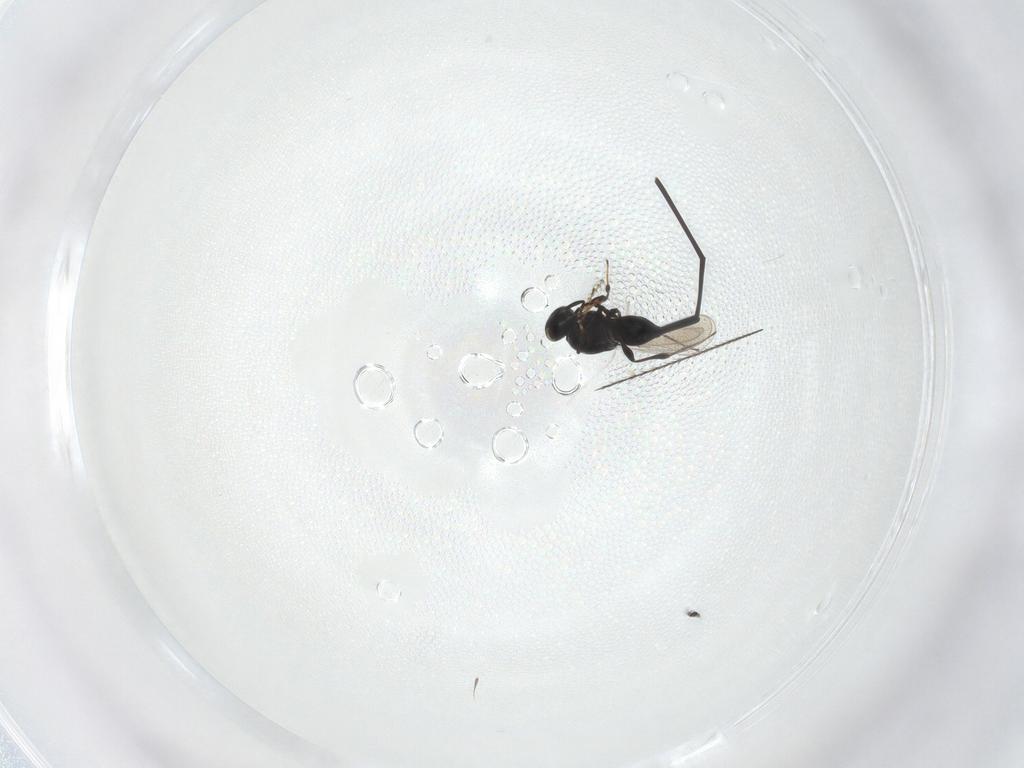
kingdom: Animalia
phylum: Arthropoda
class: Insecta
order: Hymenoptera
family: Platygastridae
